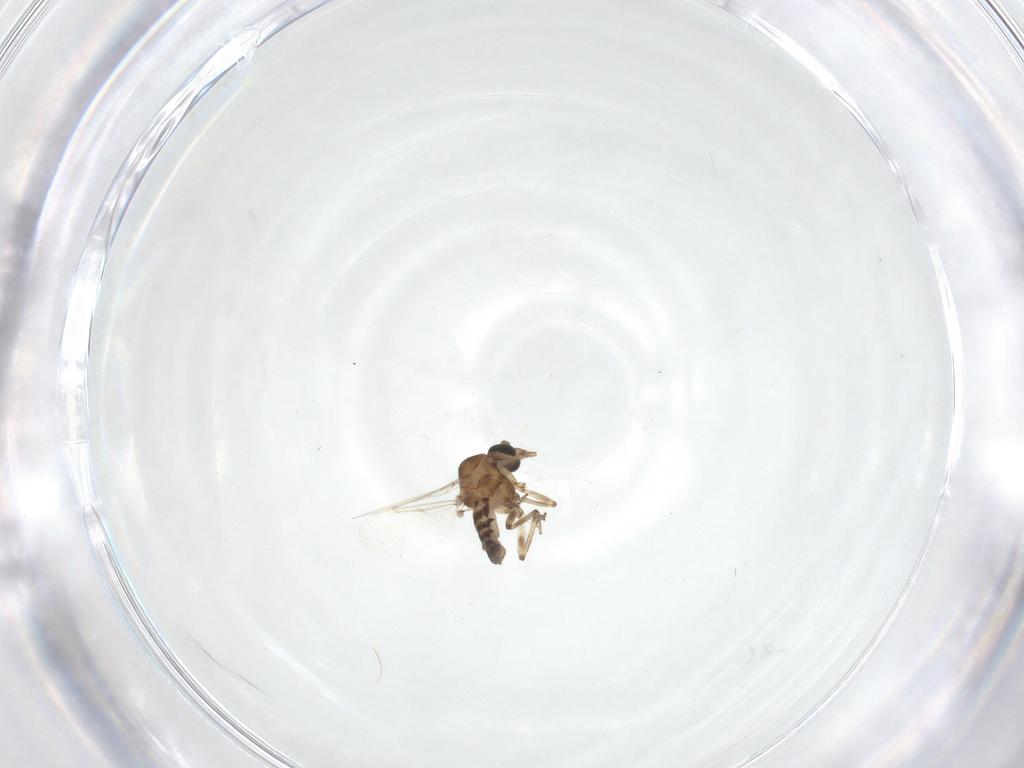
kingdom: Animalia
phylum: Arthropoda
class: Insecta
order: Diptera
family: Ceratopogonidae
